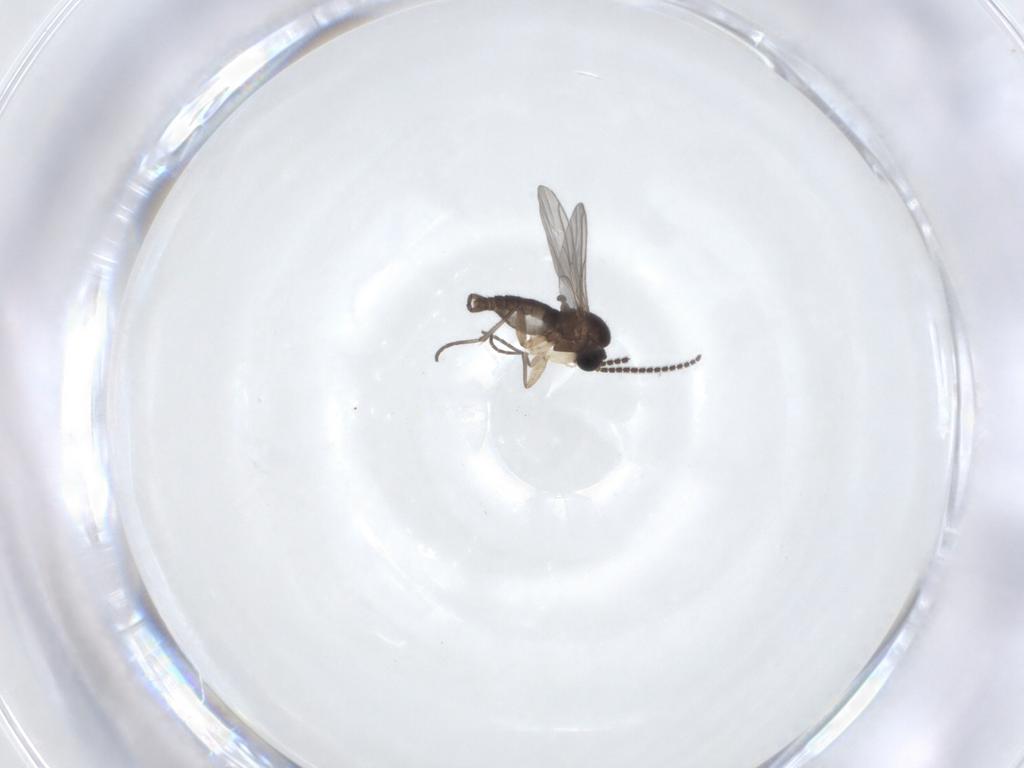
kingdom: Animalia
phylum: Arthropoda
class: Insecta
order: Diptera
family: Sciaridae
